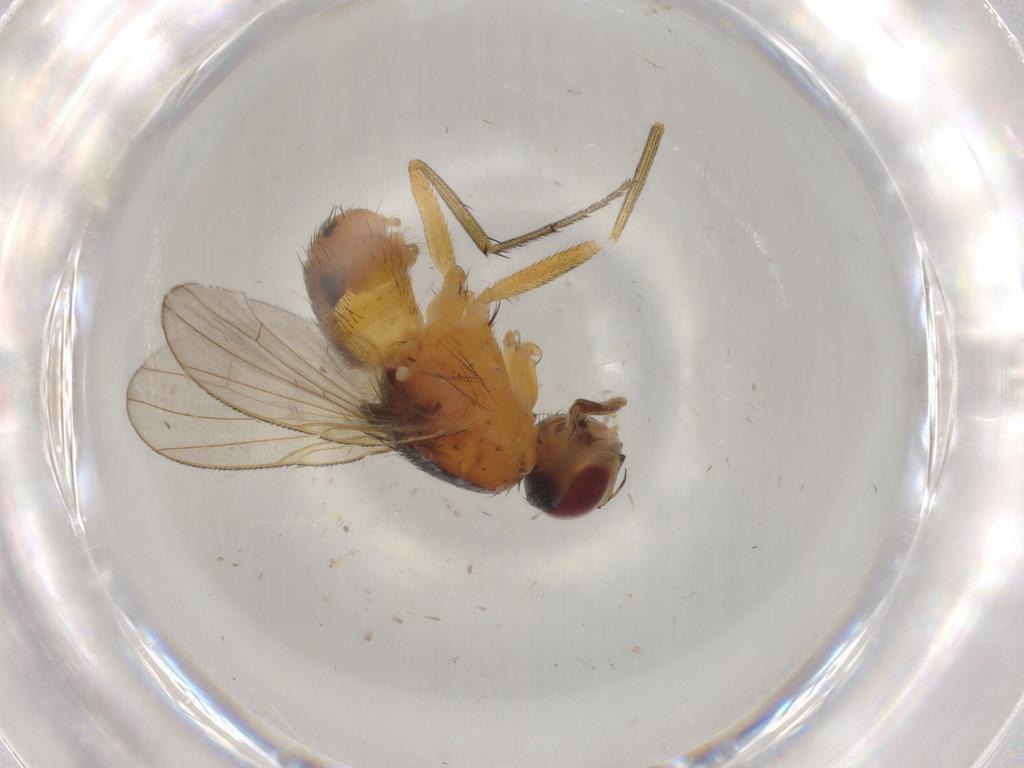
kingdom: Animalia
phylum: Arthropoda
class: Insecta
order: Diptera
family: Muscidae
